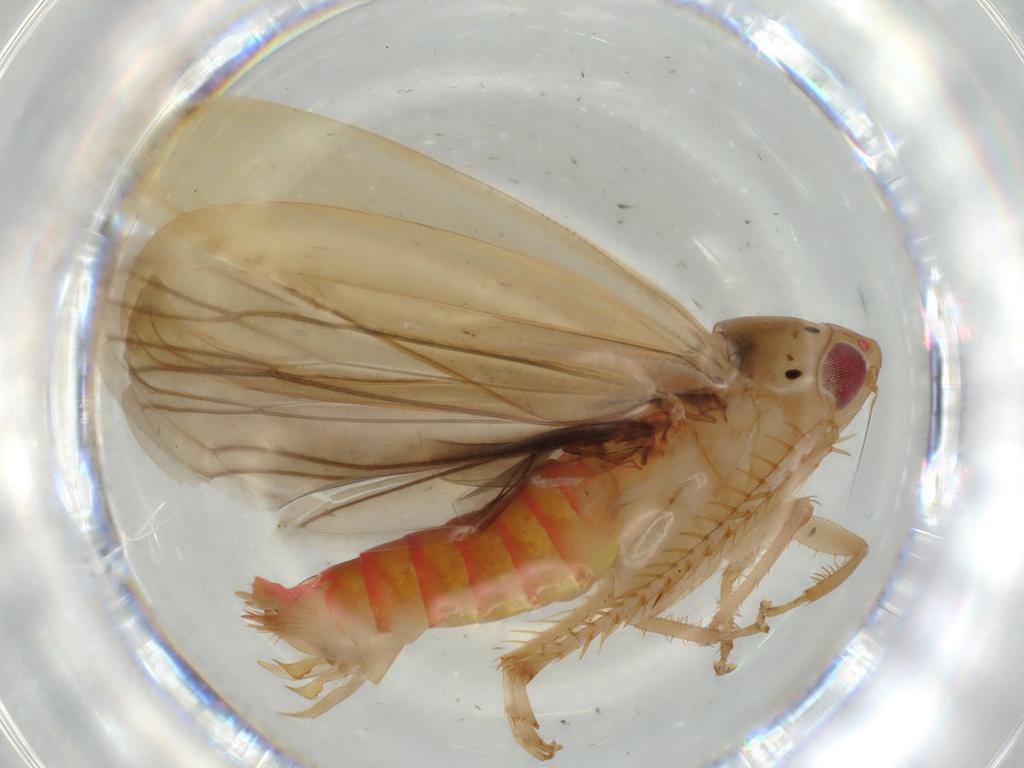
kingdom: Animalia
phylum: Arthropoda
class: Insecta
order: Hemiptera
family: Cicadellidae
